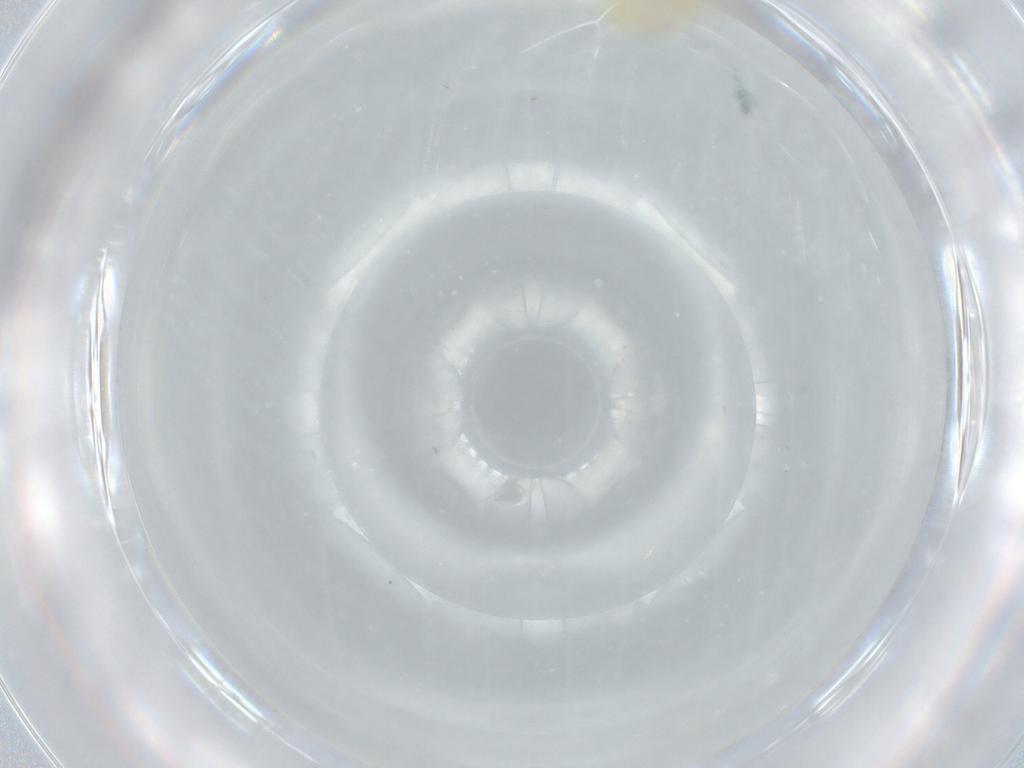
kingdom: Animalia
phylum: Arthropoda
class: Insecta
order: Hemiptera
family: Tropiduchidae
